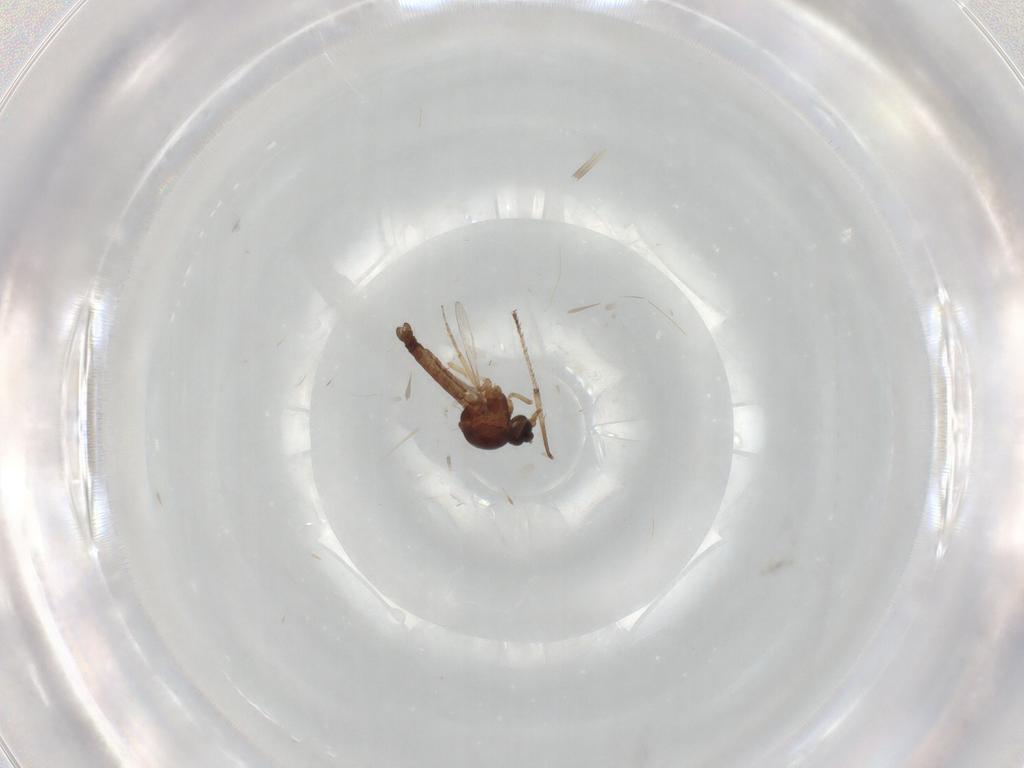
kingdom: Animalia
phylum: Arthropoda
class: Insecta
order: Diptera
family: Ceratopogonidae
